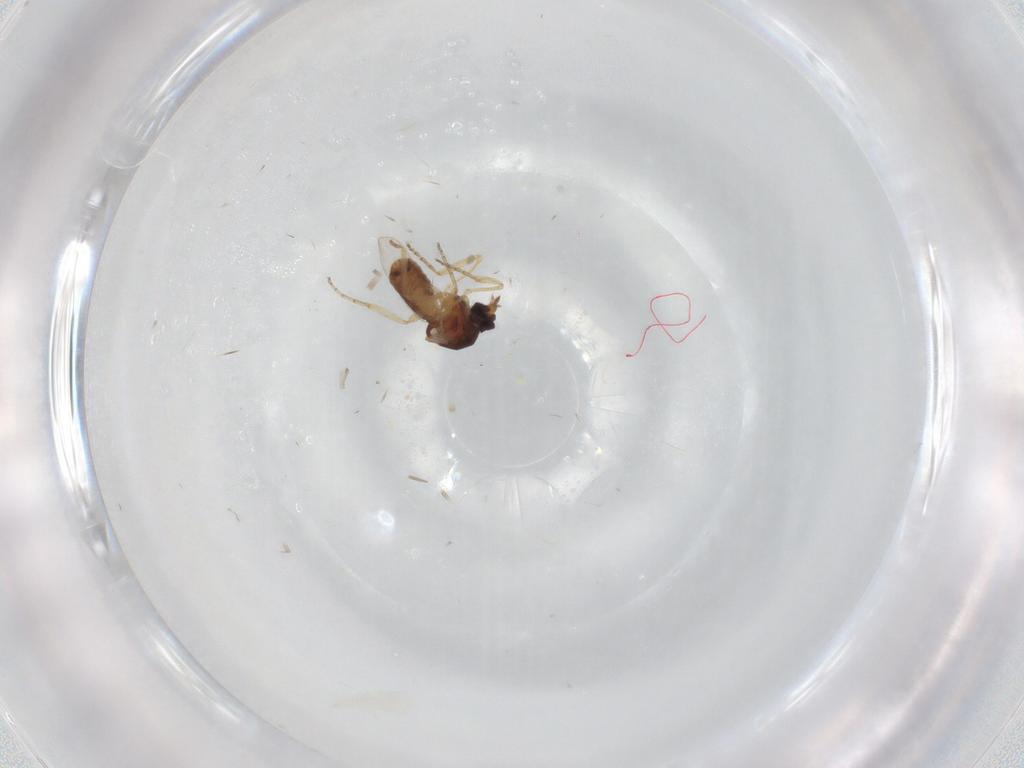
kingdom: Animalia
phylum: Arthropoda
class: Insecta
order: Diptera
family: Ceratopogonidae
